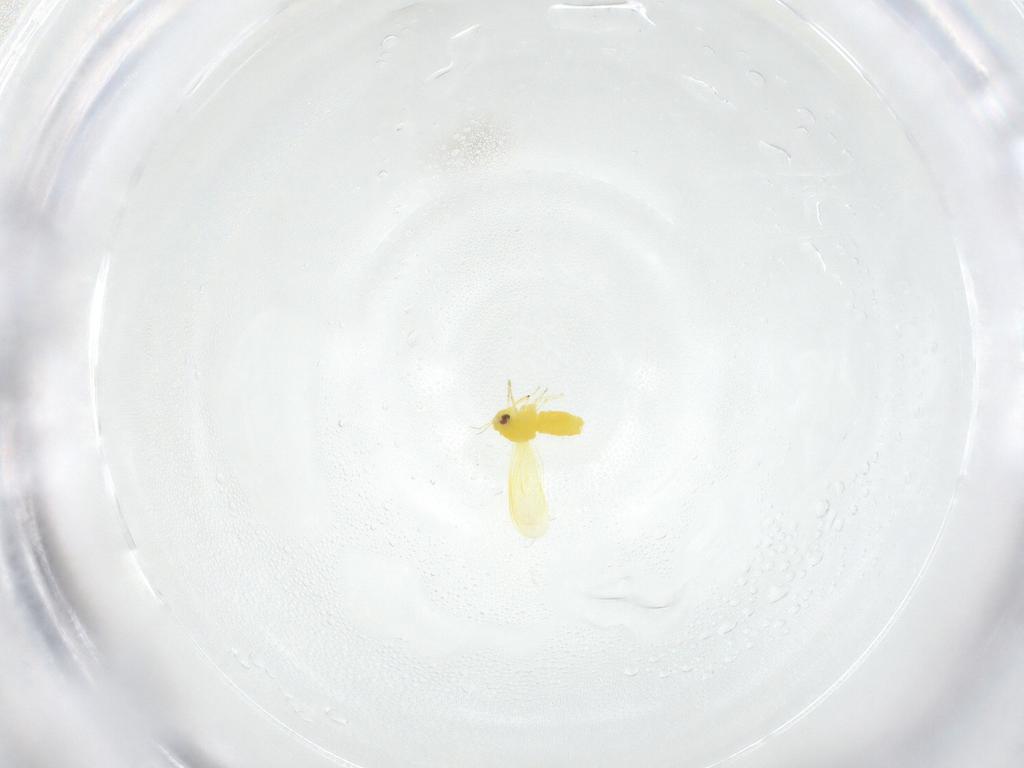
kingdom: Animalia
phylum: Arthropoda
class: Insecta
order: Hemiptera
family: Aleyrodidae
